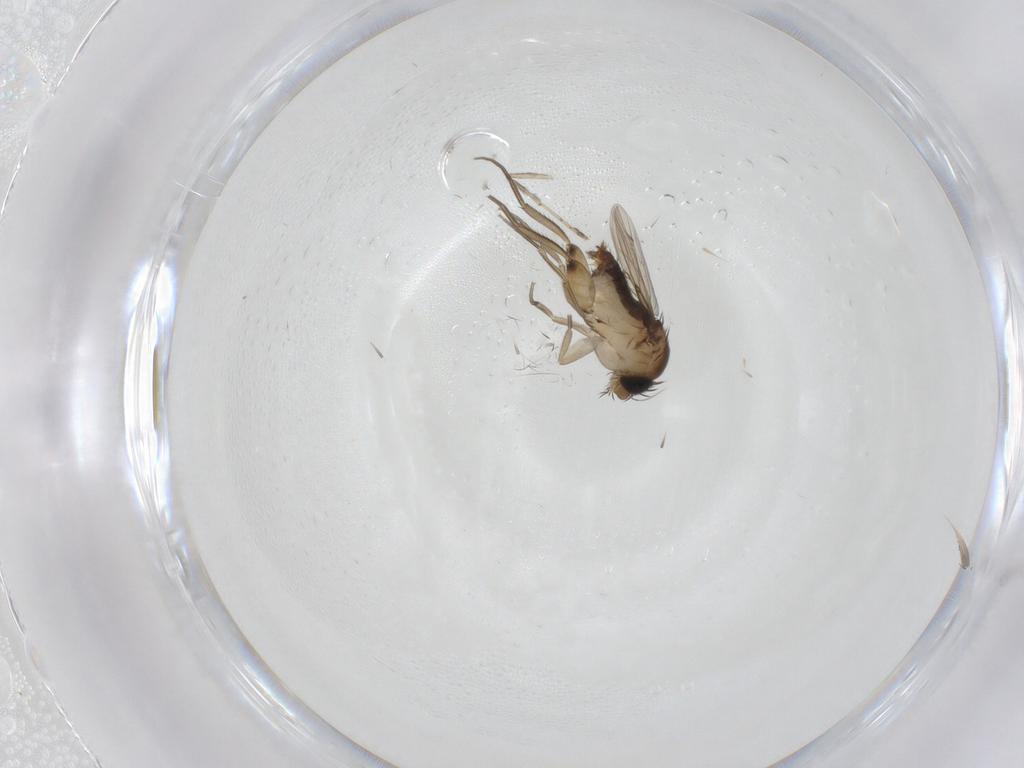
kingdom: Animalia
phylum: Arthropoda
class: Insecta
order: Diptera
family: Phoridae
